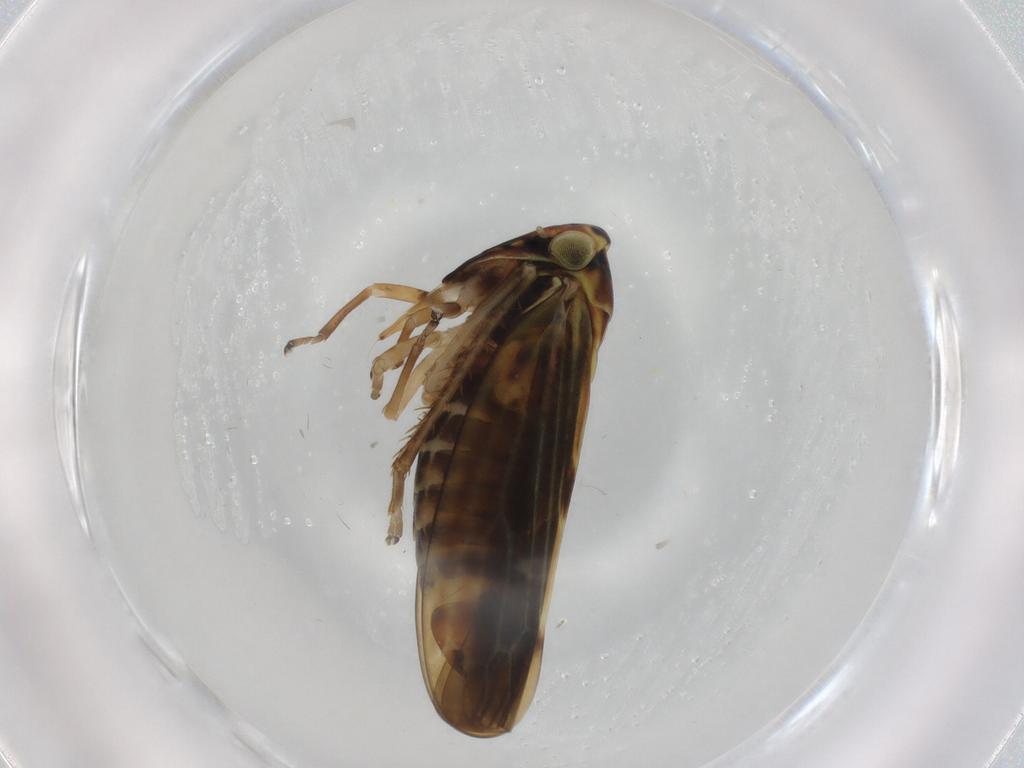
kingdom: Animalia
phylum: Arthropoda
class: Insecta
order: Hemiptera
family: Cicadellidae
